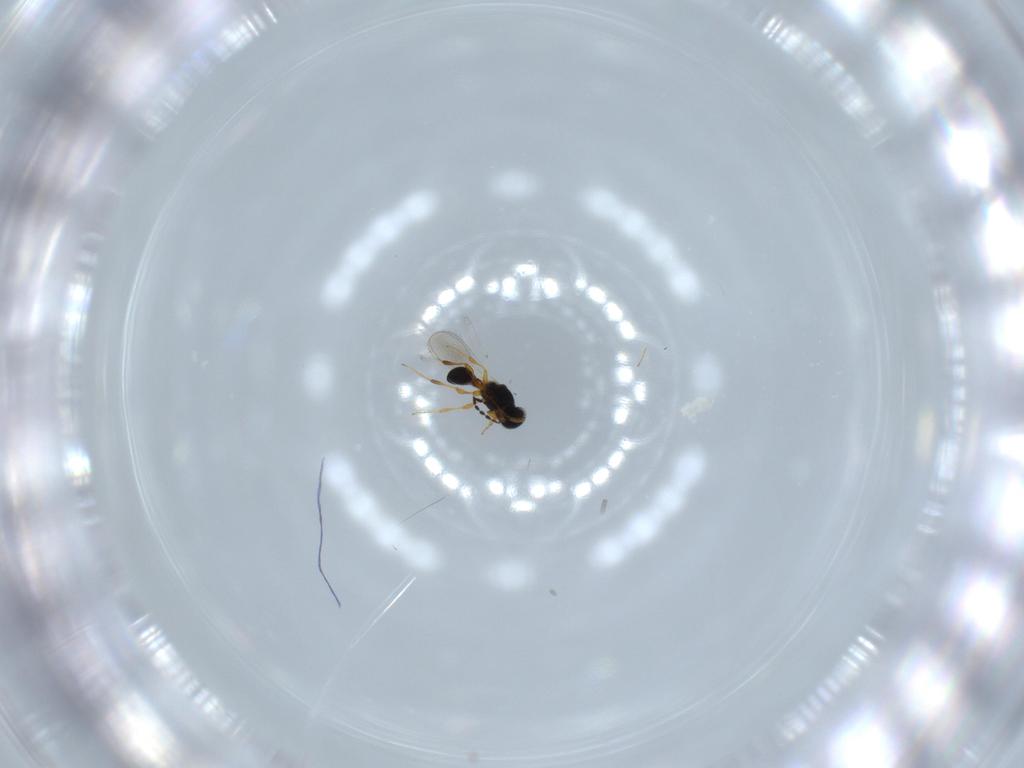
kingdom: Animalia
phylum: Arthropoda
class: Insecta
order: Hymenoptera
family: Platygastridae
